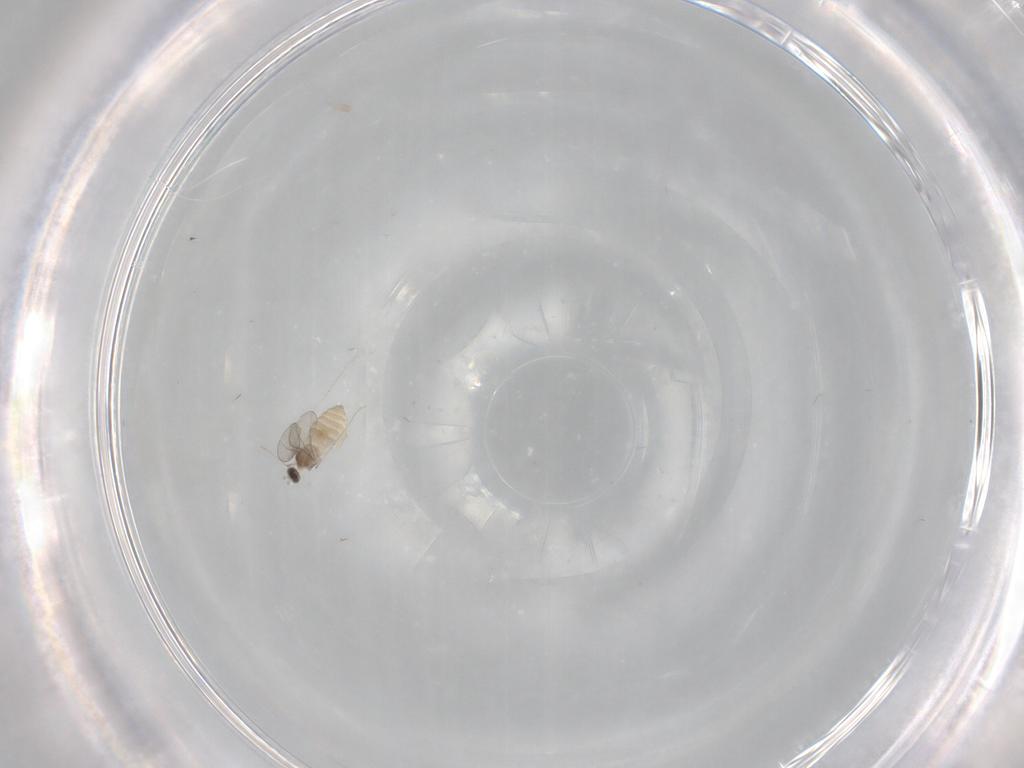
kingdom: Animalia
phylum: Arthropoda
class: Insecta
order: Diptera
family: Cecidomyiidae
